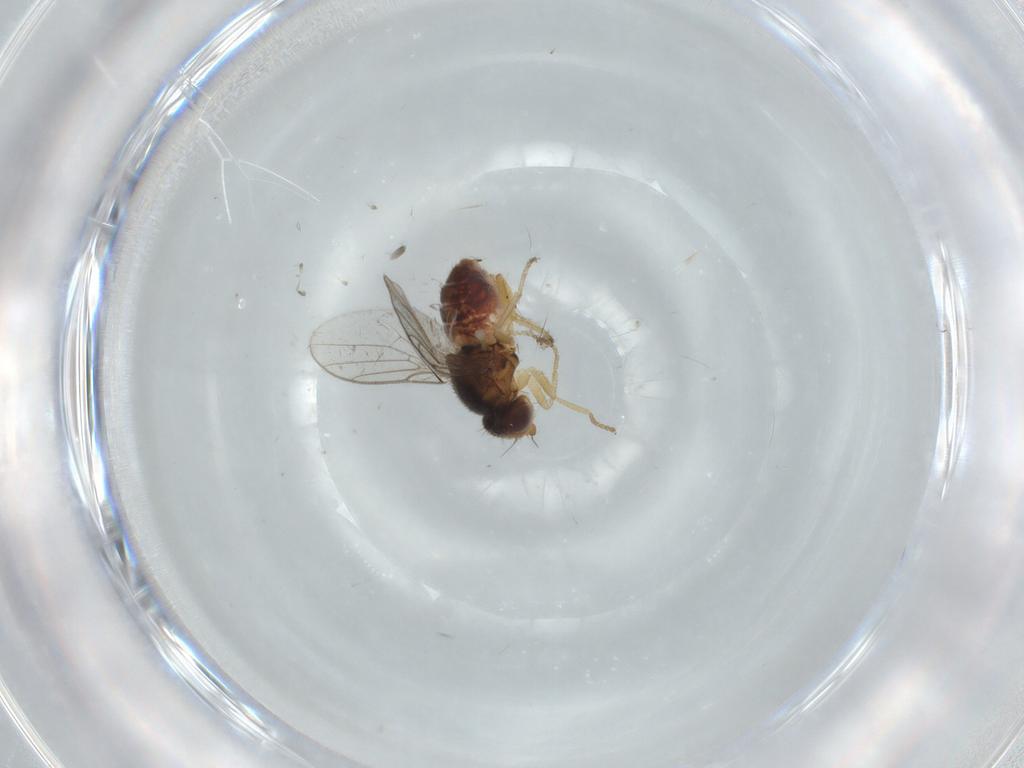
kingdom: Animalia
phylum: Arthropoda
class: Insecta
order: Diptera
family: Chloropidae
